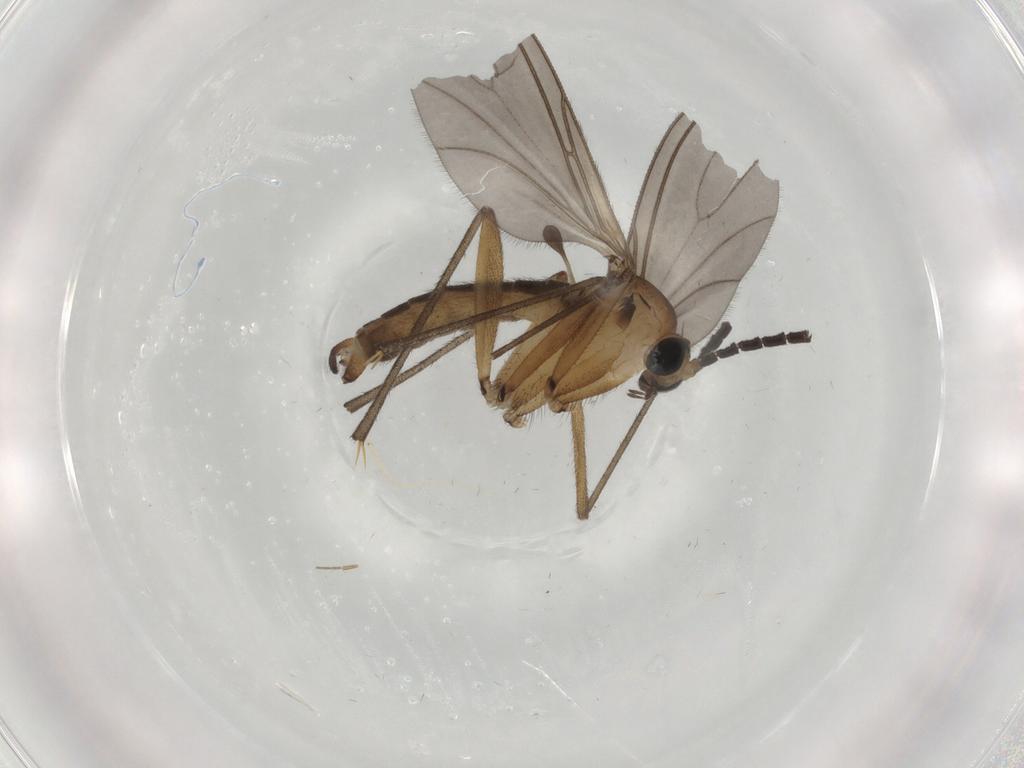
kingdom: Animalia
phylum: Arthropoda
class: Insecta
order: Diptera
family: Sciaridae
